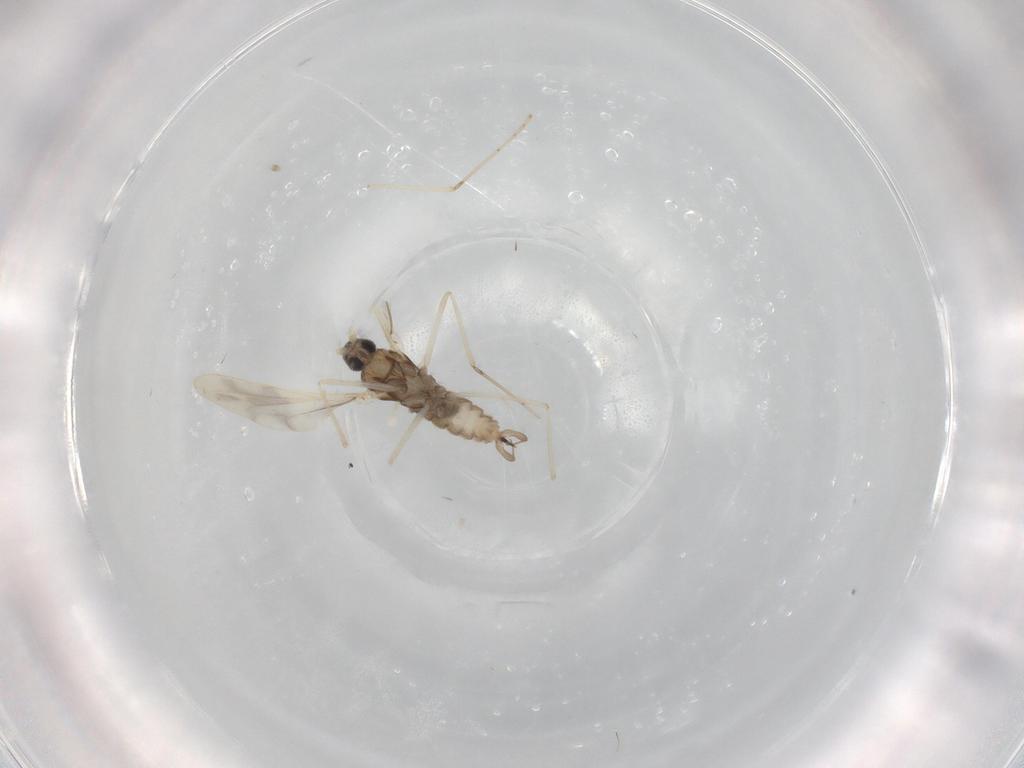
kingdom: Animalia
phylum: Arthropoda
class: Insecta
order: Diptera
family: Cecidomyiidae
